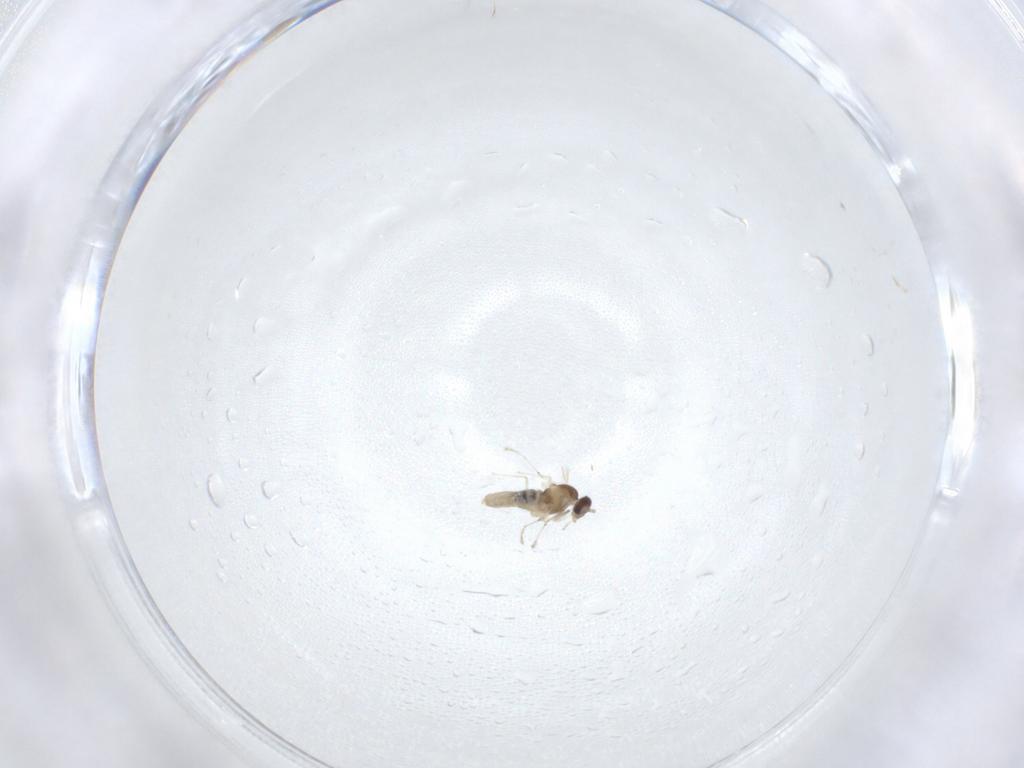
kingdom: Animalia
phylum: Arthropoda
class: Insecta
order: Diptera
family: Cecidomyiidae
